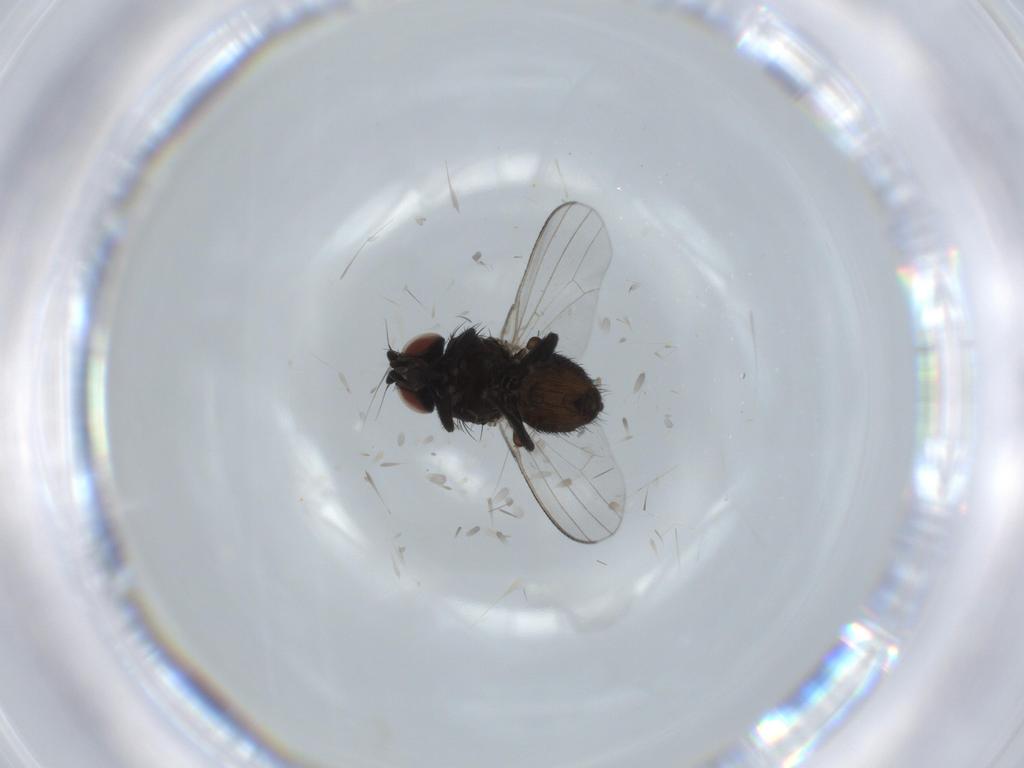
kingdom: Animalia
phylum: Arthropoda
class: Insecta
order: Diptera
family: Milichiidae
